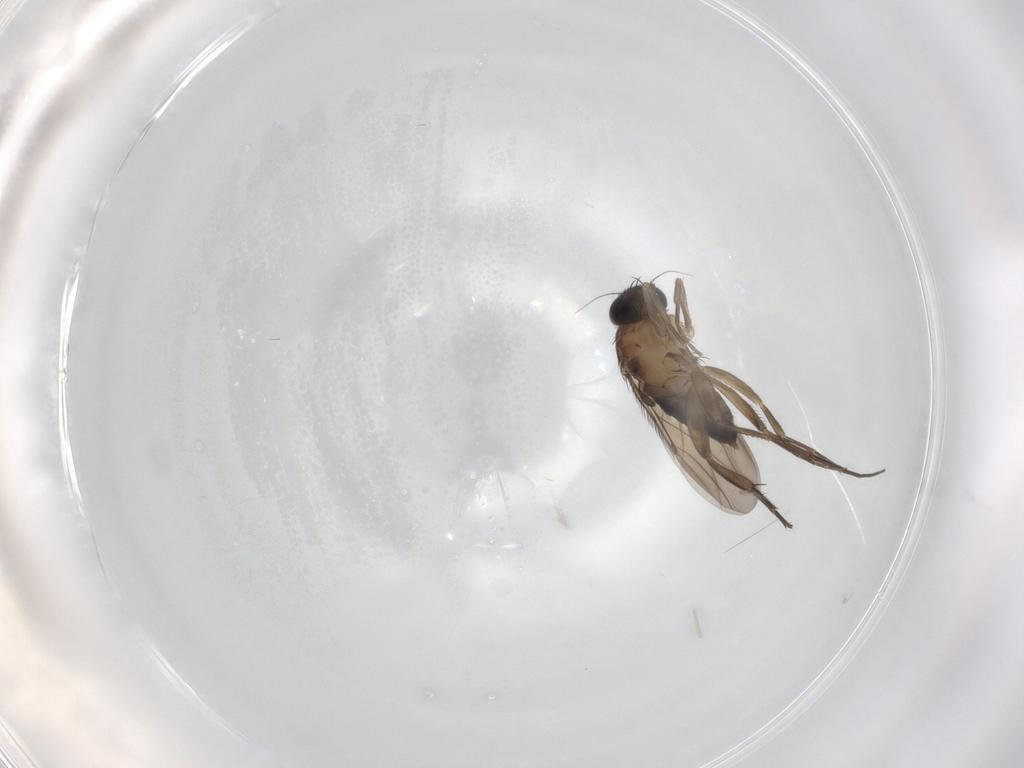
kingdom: Animalia
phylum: Arthropoda
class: Insecta
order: Diptera
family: Phoridae
